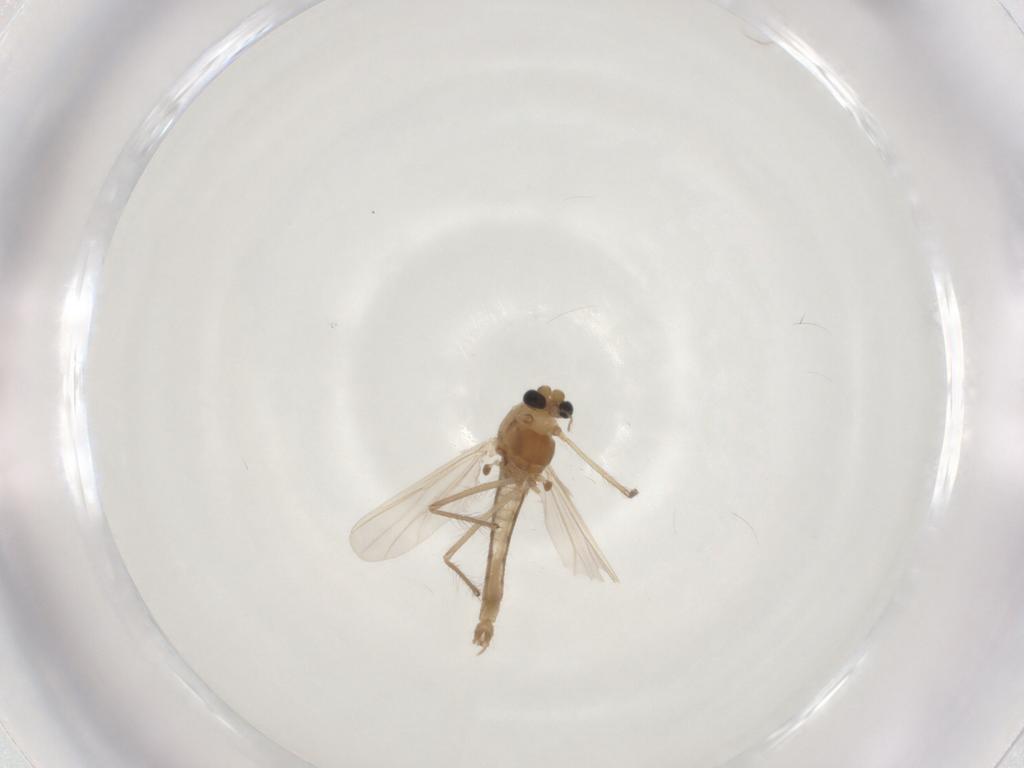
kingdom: Animalia
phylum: Arthropoda
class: Insecta
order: Diptera
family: Chironomidae
